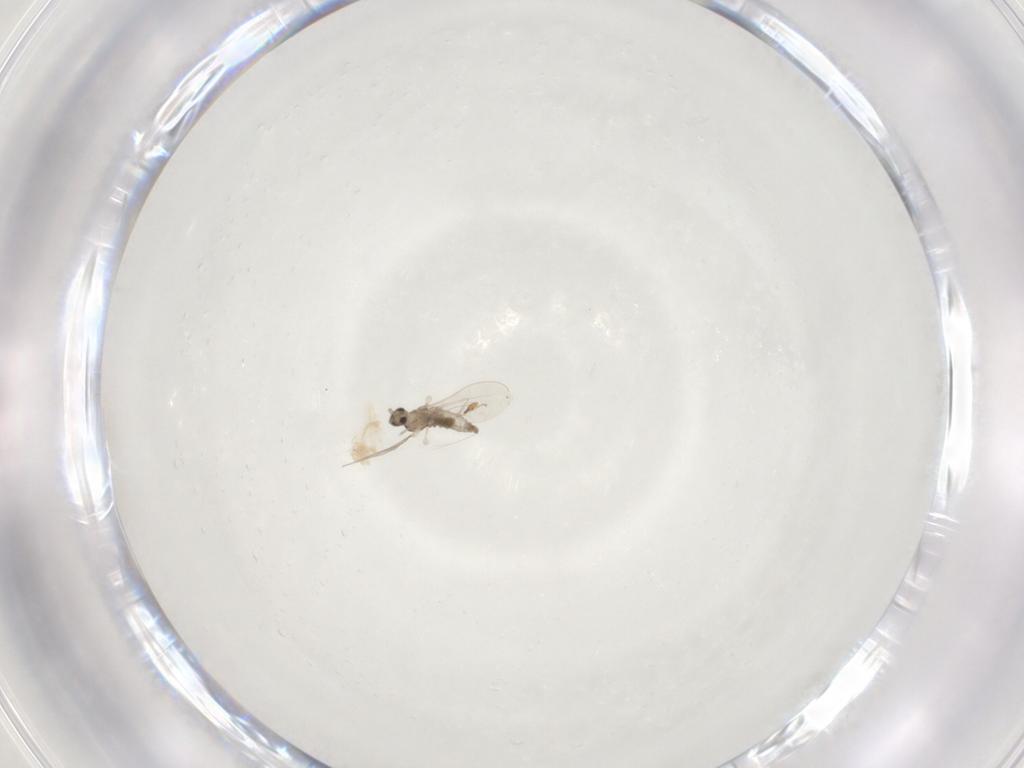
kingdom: Animalia
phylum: Arthropoda
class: Insecta
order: Diptera
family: Cecidomyiidae
